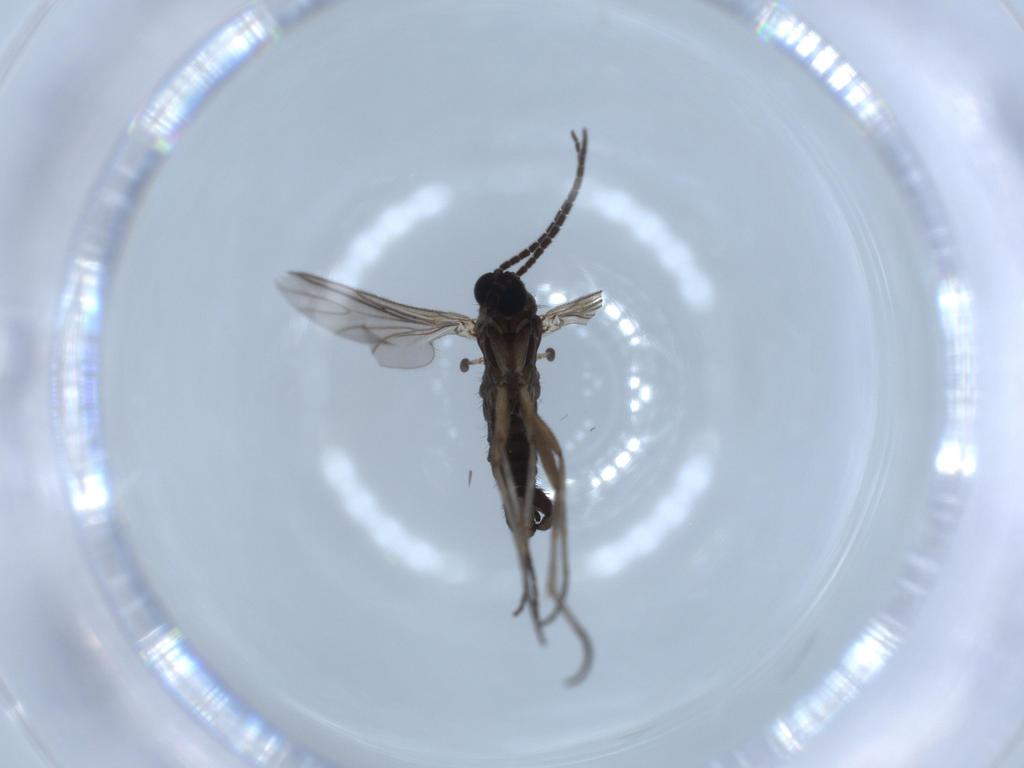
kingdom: Animalia
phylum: Arthropoda
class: Insecta
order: Diptera
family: Sciaridae
